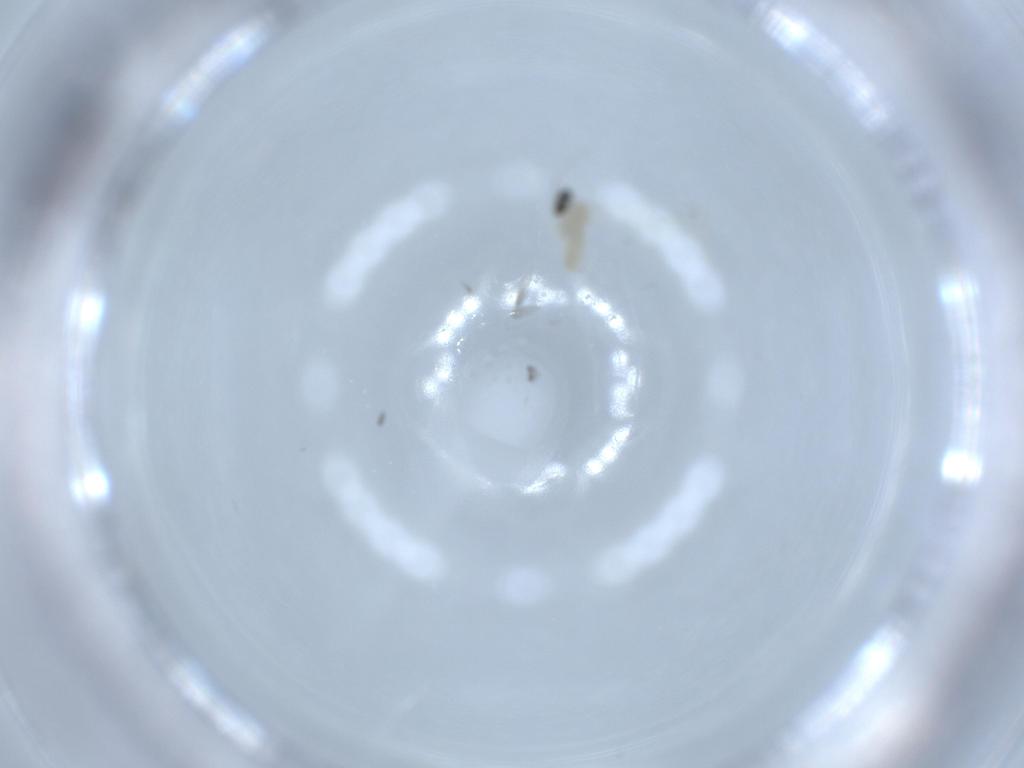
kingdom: Animalia
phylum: Arthropoda
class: Insecta
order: Diptera
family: Cecidomyiidae
